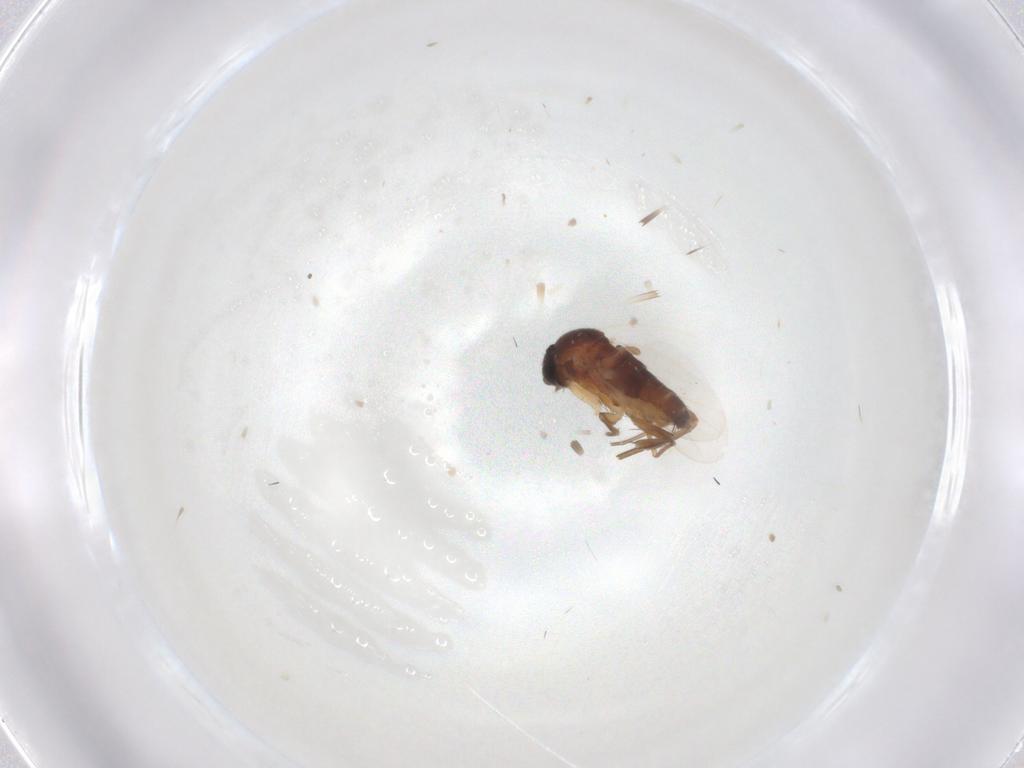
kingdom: Animalia
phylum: Arthropoda
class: Insecta
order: Diptera
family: Phoridae
